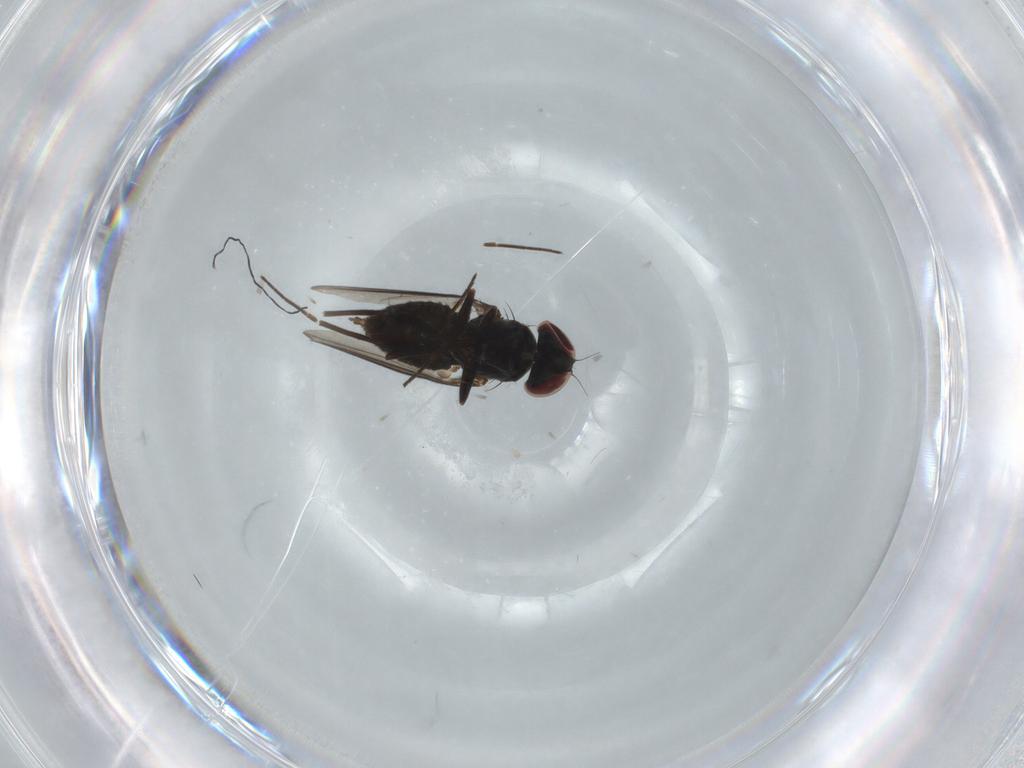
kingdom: Animalia
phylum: Arthropoda
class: Insecta
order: Diptera
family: Dolichopodidae
